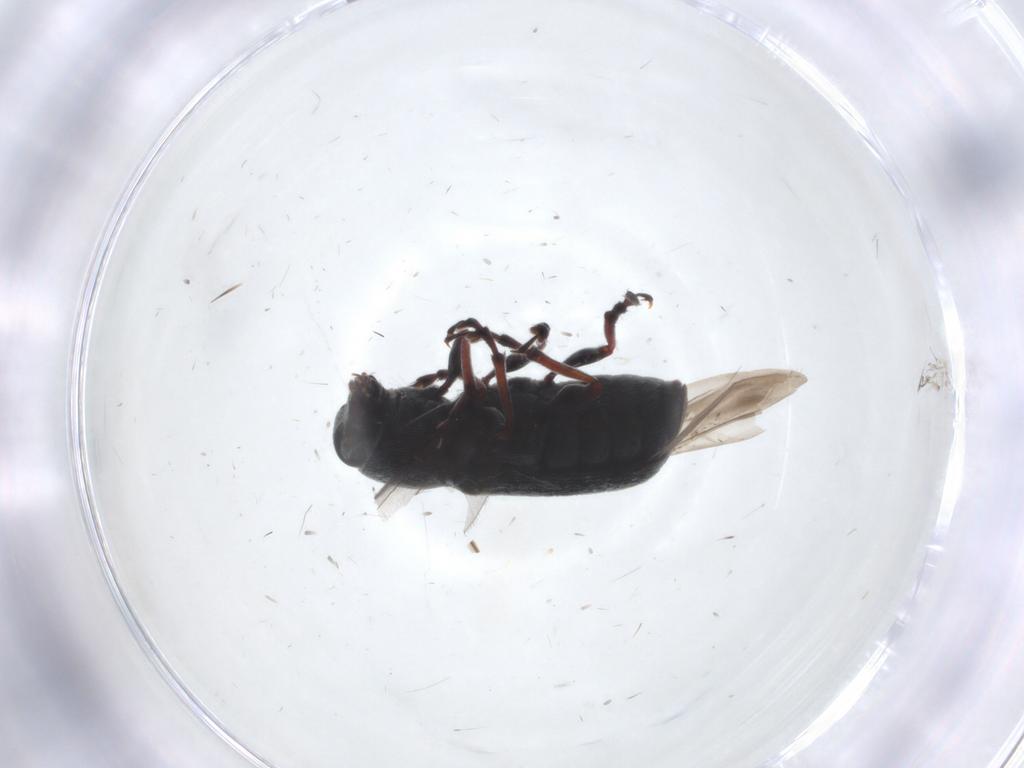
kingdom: Animalia
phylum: Arthropoda
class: Insecta
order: Coleoptera
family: Anthribidae
